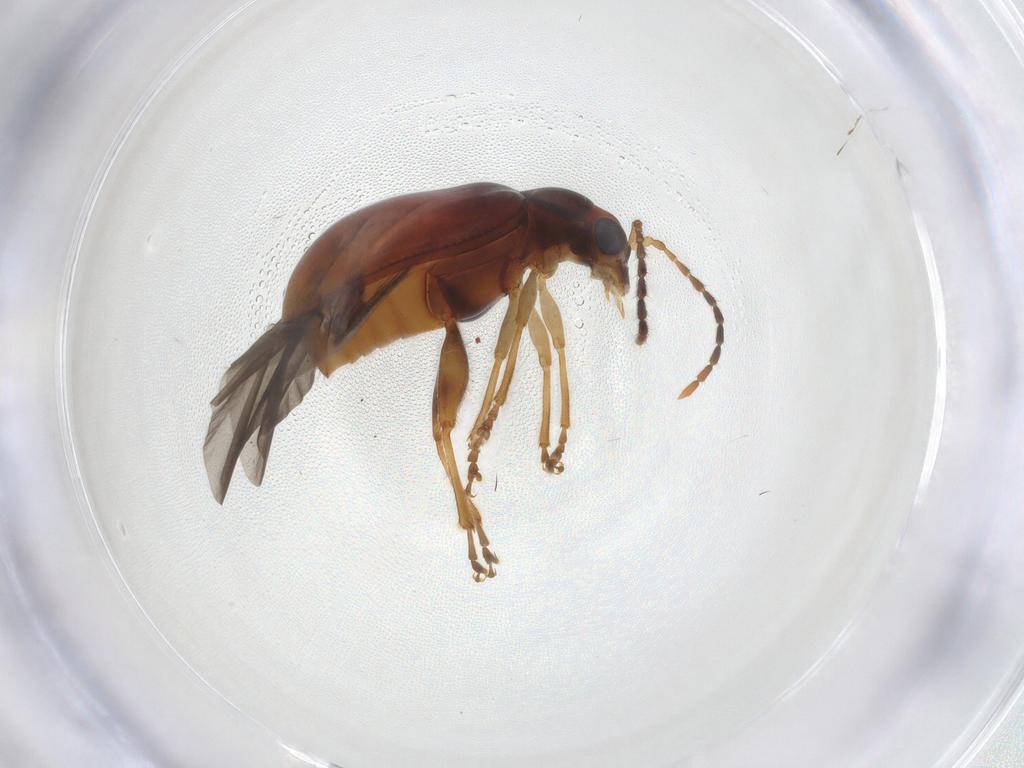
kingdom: Animalia
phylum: Arthropoda
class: Insecta
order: Coleoptera
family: Chrysomelidae
